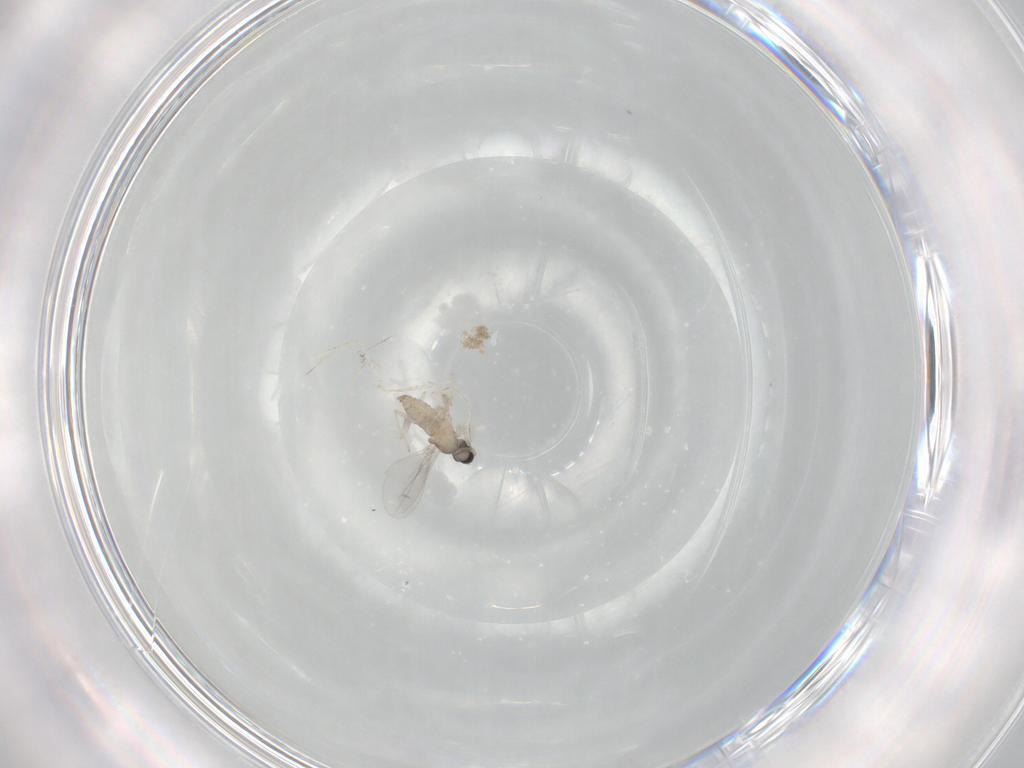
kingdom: Animalia
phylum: Arthropoda
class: Insecta
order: Diptera
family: Cecidomyiidae
